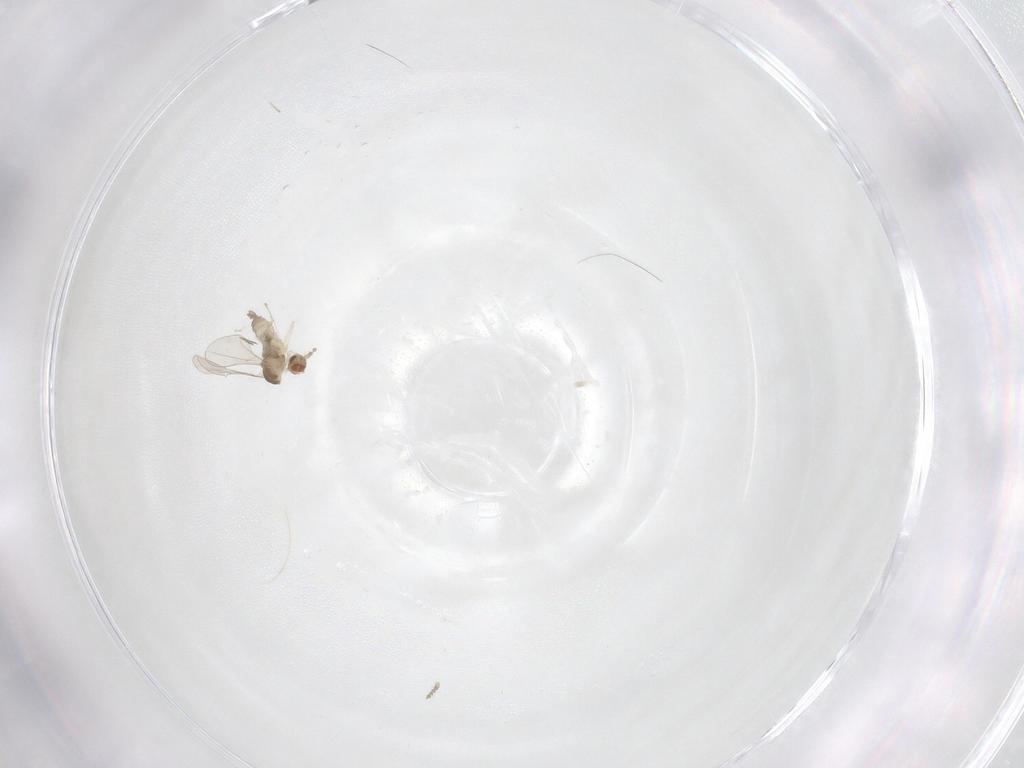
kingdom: Animalia
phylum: Arthropoda
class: Insecta
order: Diptera
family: Cecidomyiidae
